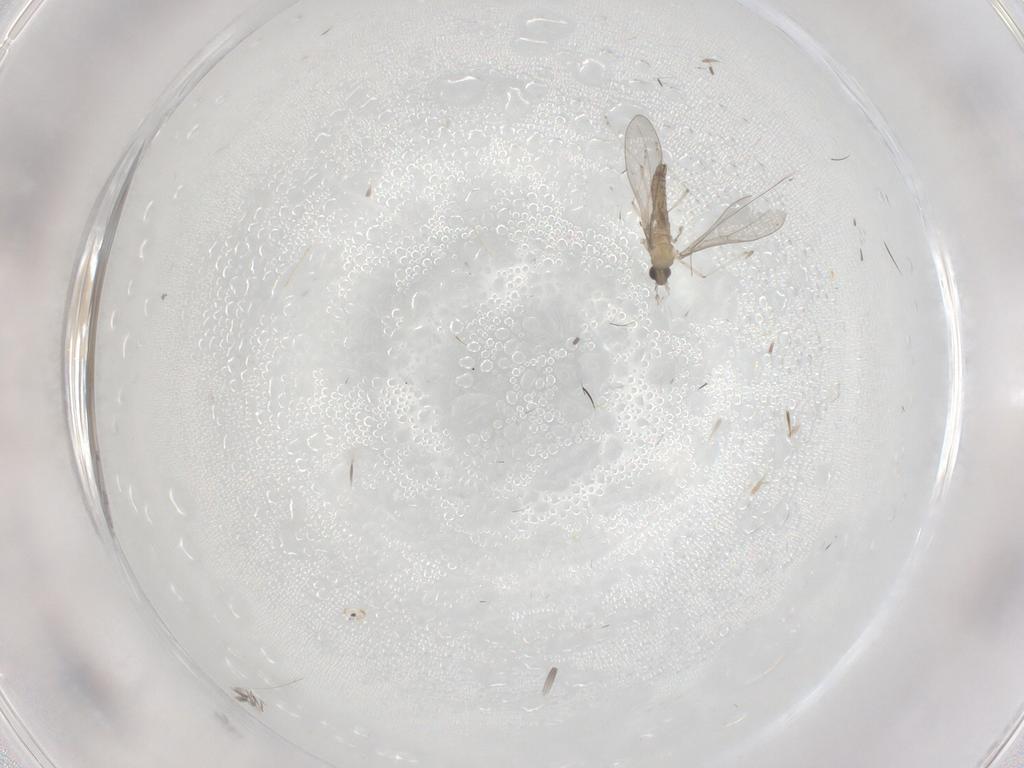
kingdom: Animalia
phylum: Arthropoda
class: Insecta
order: Diptera
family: Cecidomyiidae
